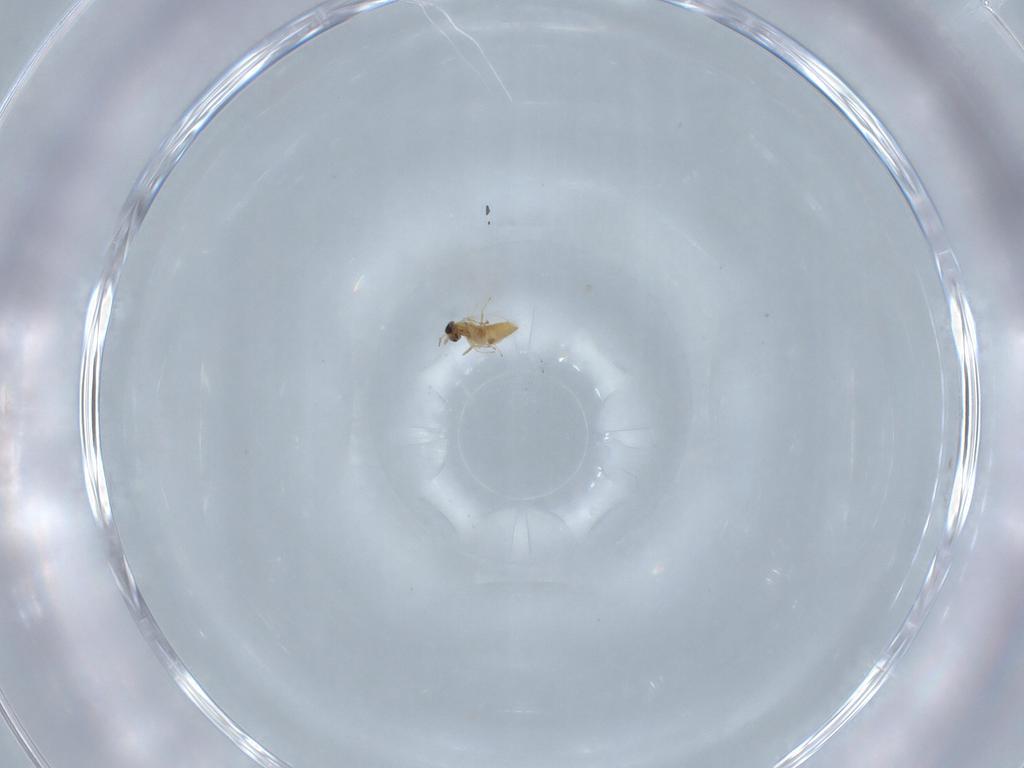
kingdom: Animalia
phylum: Arthropoda
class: Insecta
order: Hymenoptera
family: Trichogrammatidae
